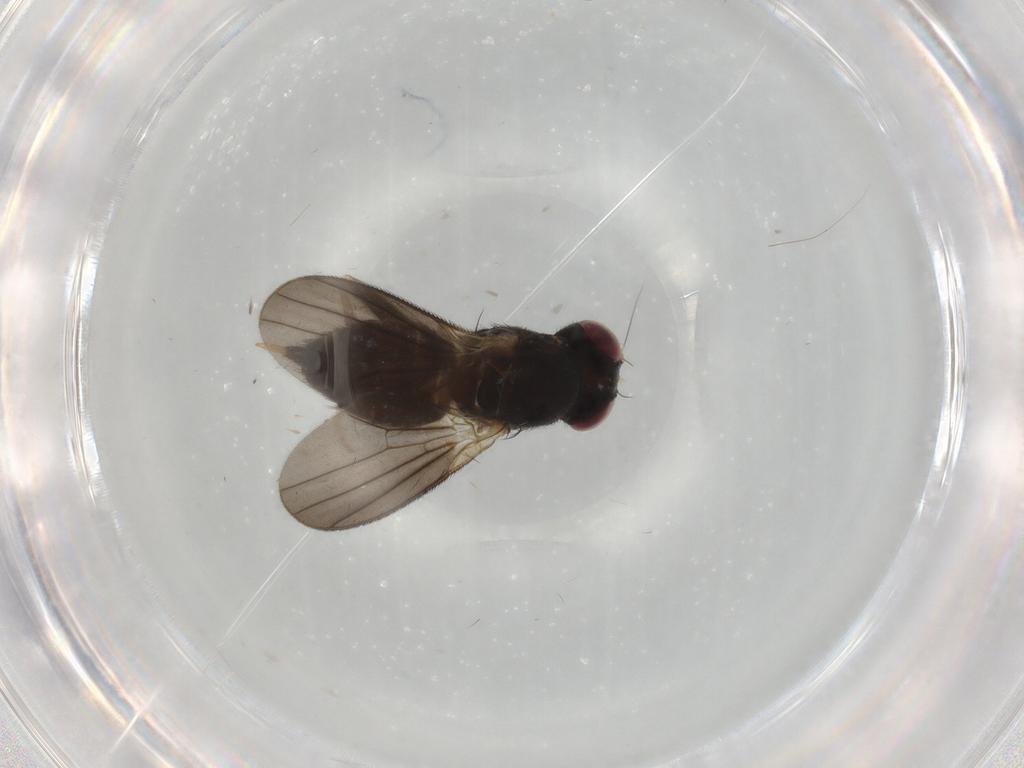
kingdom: Animalia
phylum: Arthropoda
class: Insecta
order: Diptera
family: Clusiidae
